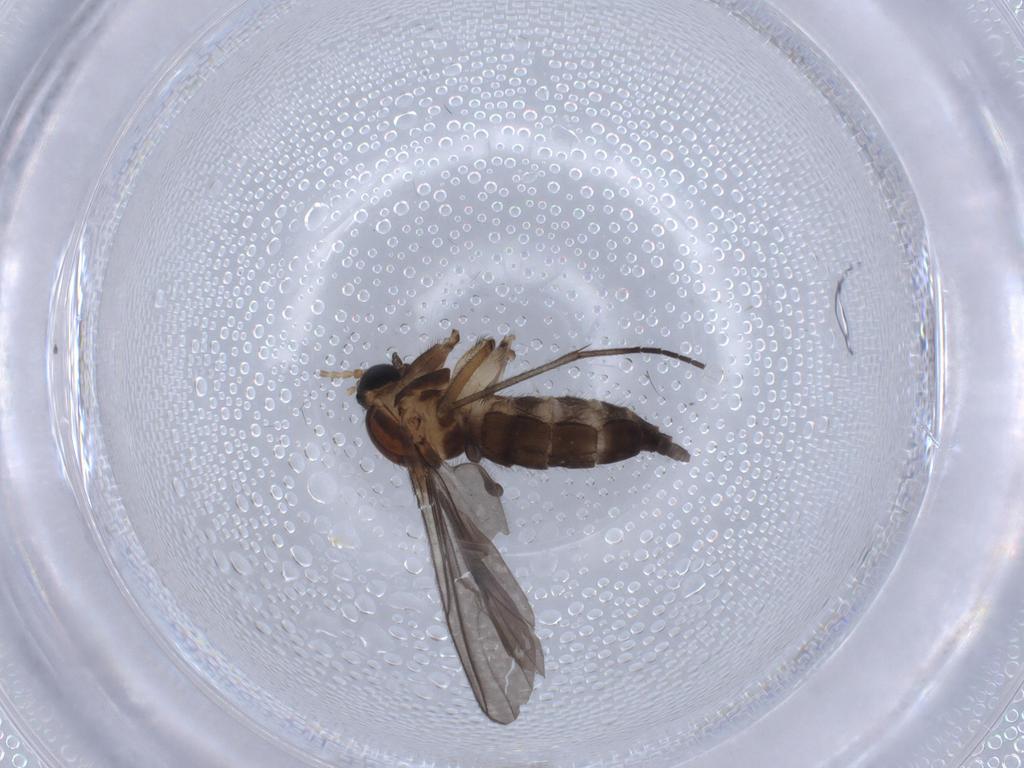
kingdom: Animalia
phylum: Arthropoda
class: Insecta
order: Diptera
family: Sciaridae
